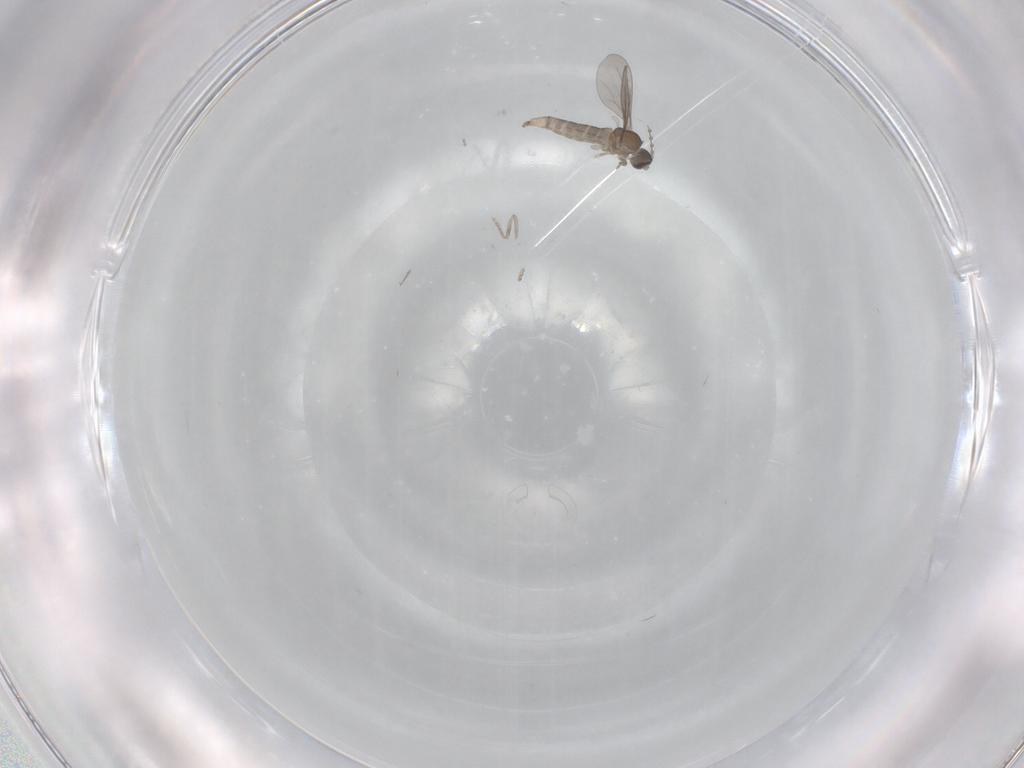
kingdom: Animalia
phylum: Arthropoda
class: Insecta
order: Diptera
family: Cecidomyiidae
